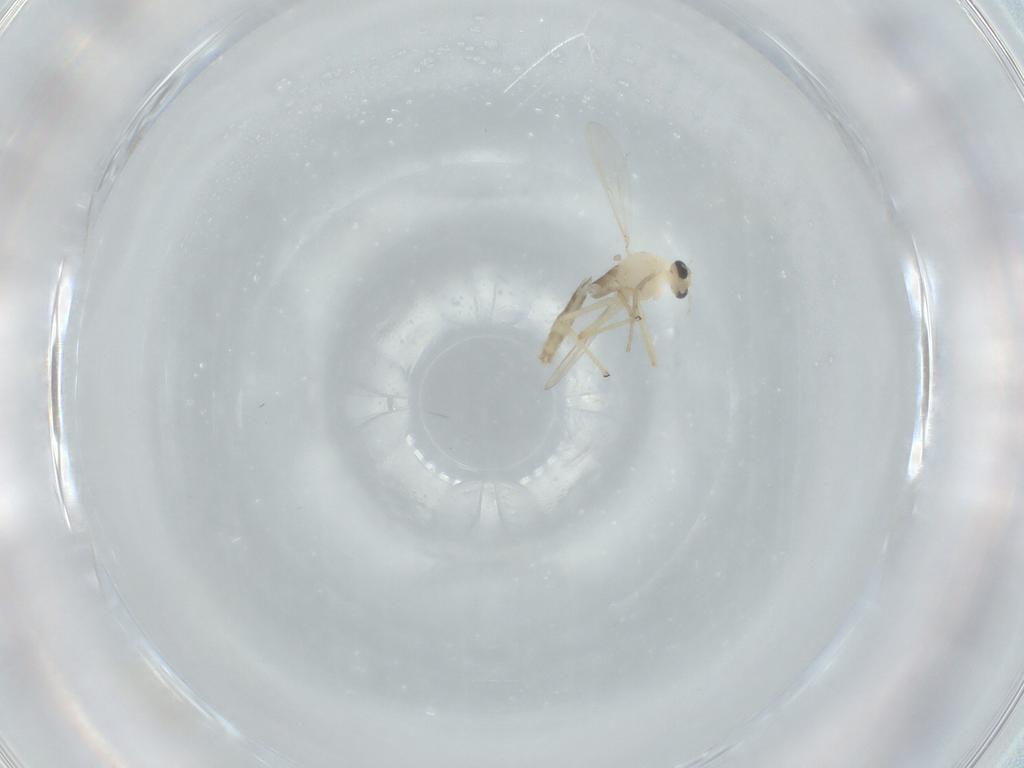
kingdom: Animalia
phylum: Arthropoda
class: Insecta
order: Diptera
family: Chironomidae
